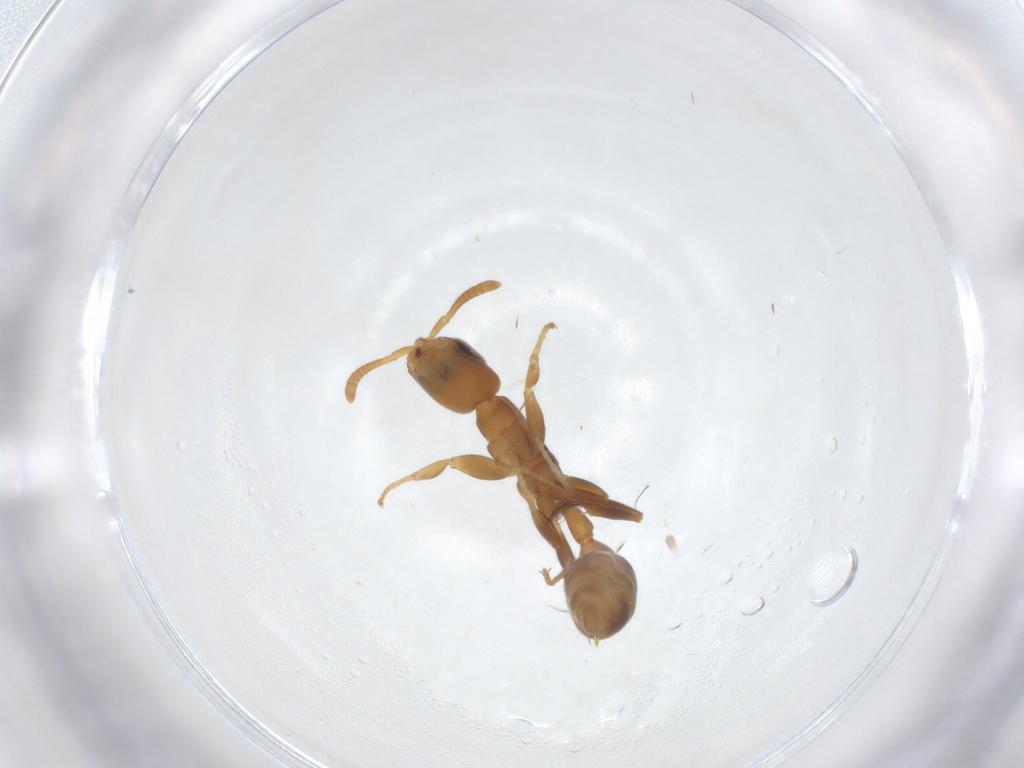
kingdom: Animalia
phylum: Arthropoda
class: Insecta
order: Hymenoptera
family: Formicidae
